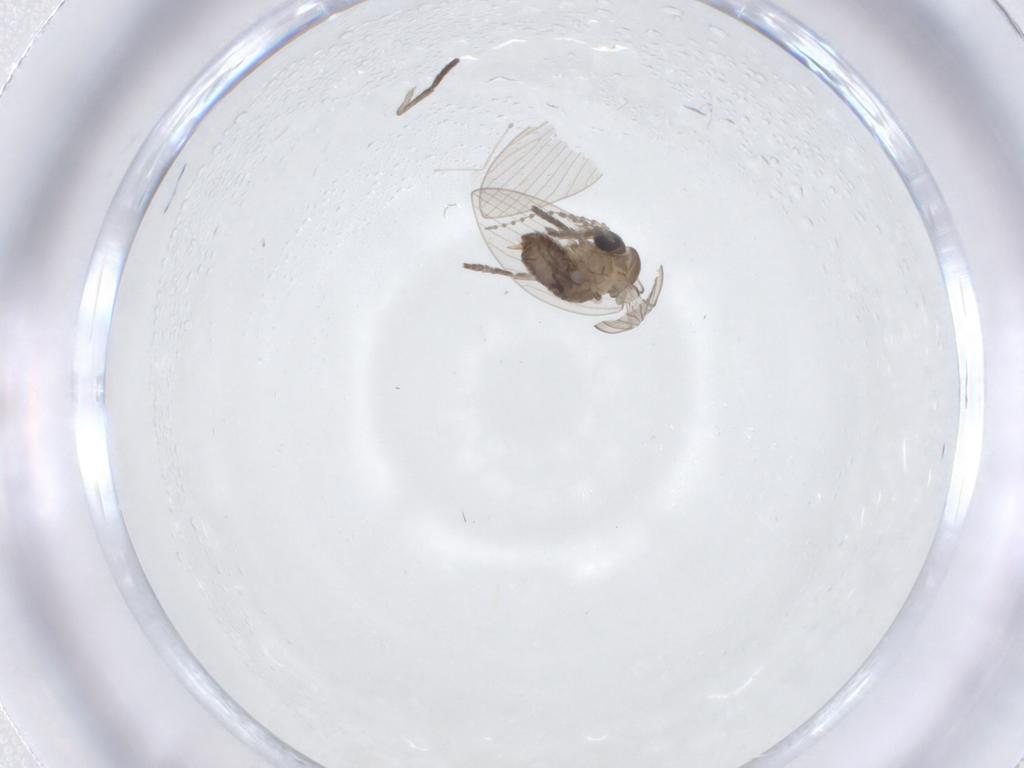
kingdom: Animalia
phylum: Arthropoda
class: Insecta
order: Diptera
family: Psychodidae
